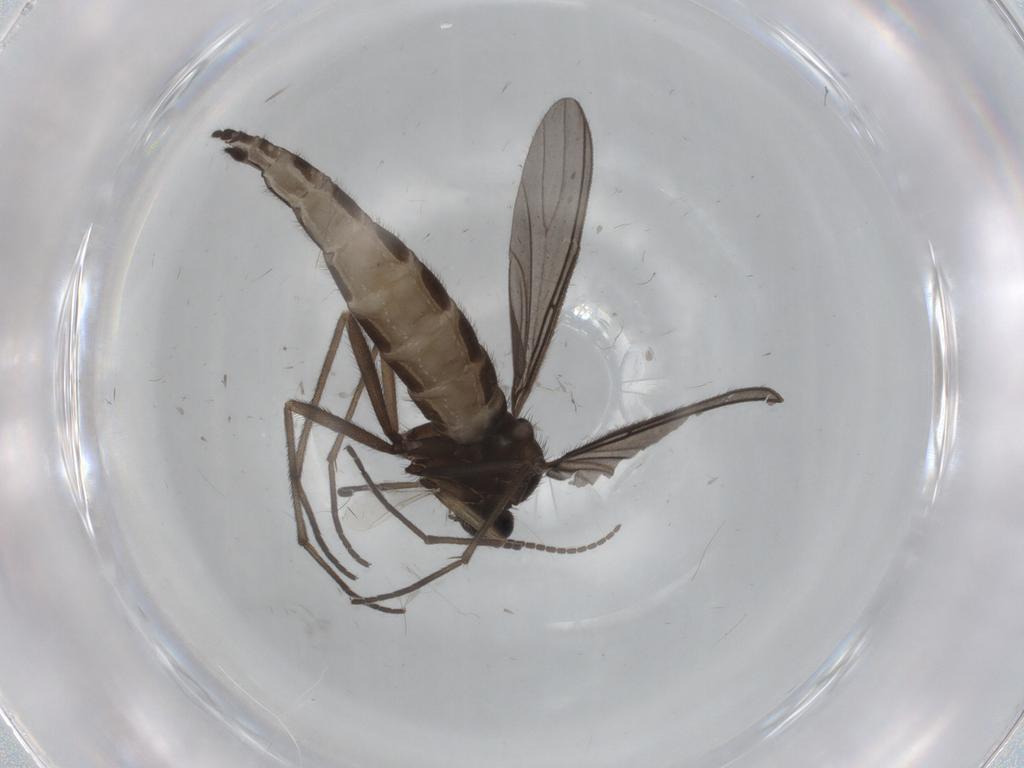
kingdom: Animalia
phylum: Arthropoda
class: Insecta
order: Diptera
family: Sciaridae
